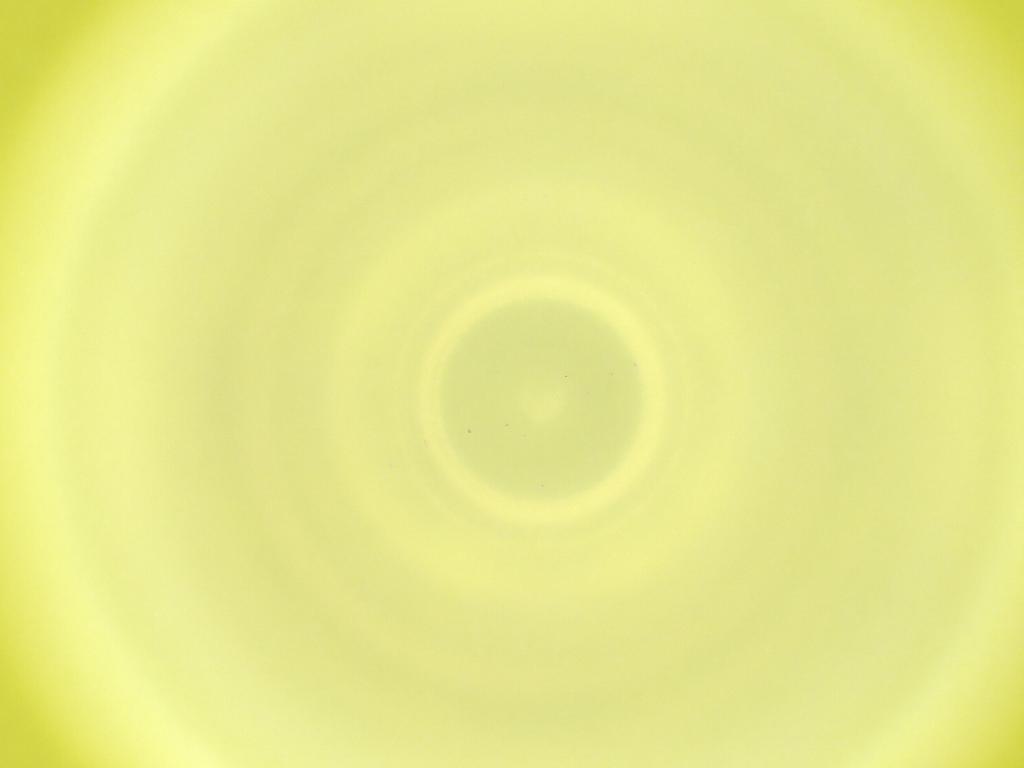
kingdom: Animalia
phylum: Arthropoda
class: Insecta
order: Diptera
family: Cecidomyiidae
